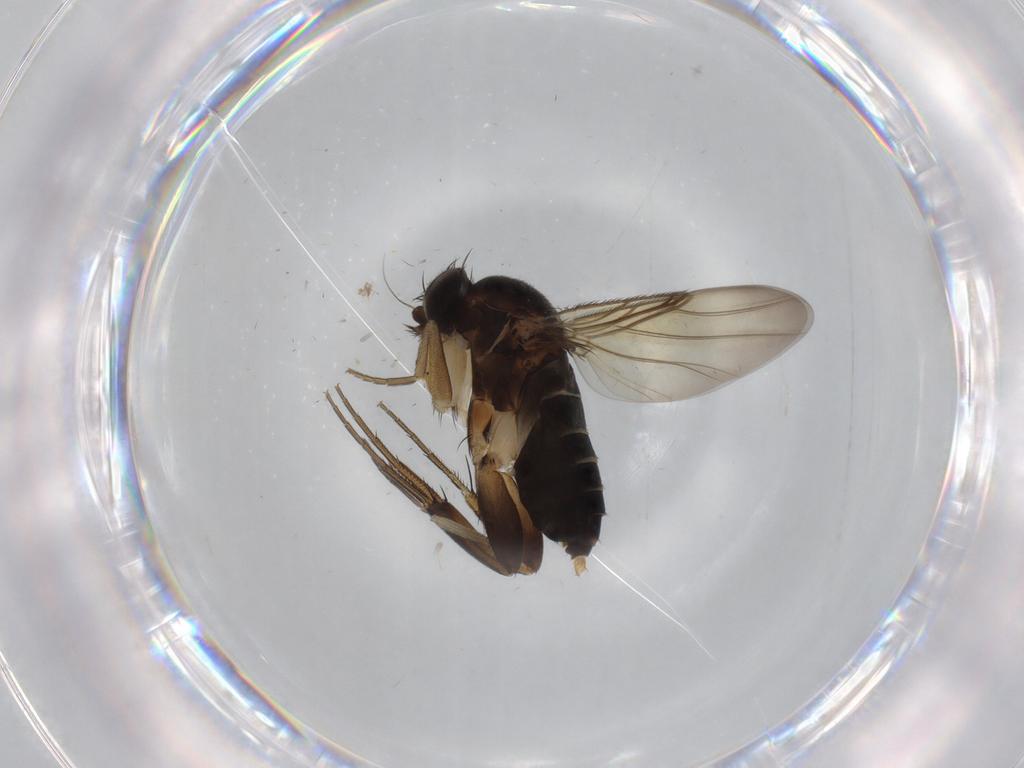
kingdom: Animalia
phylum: Arthropoda
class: Insecta
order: Diptera
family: Phoridae
